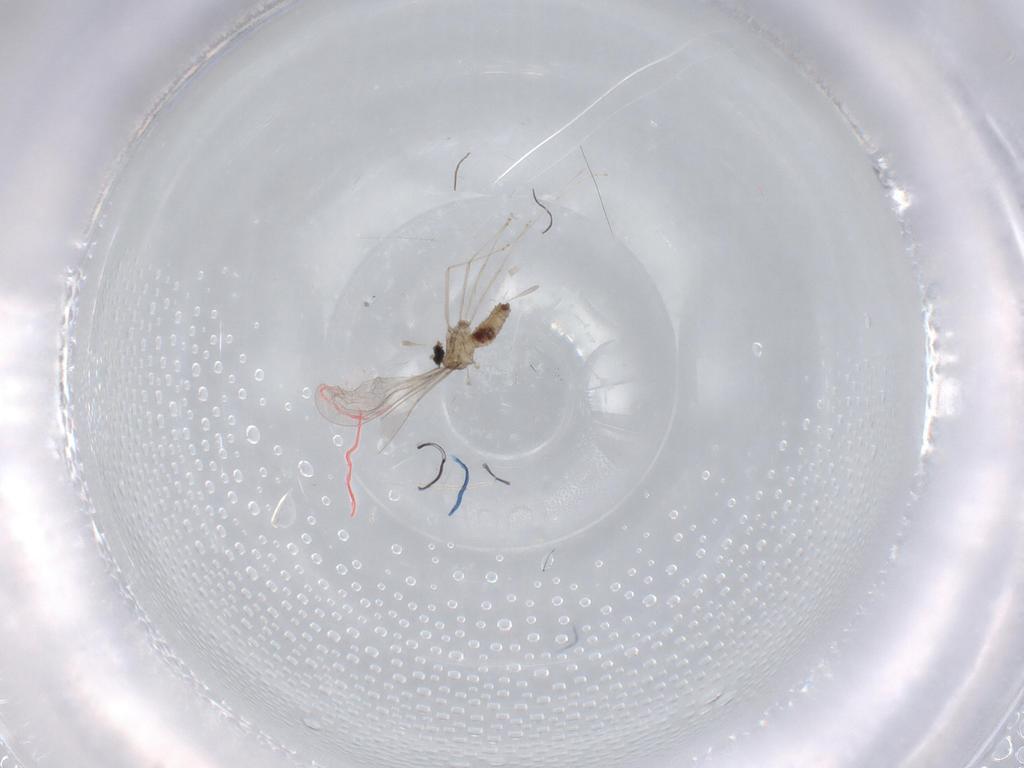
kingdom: Animalia
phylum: Arthropoda
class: Insecta
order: Diptera
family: Chironomidae
